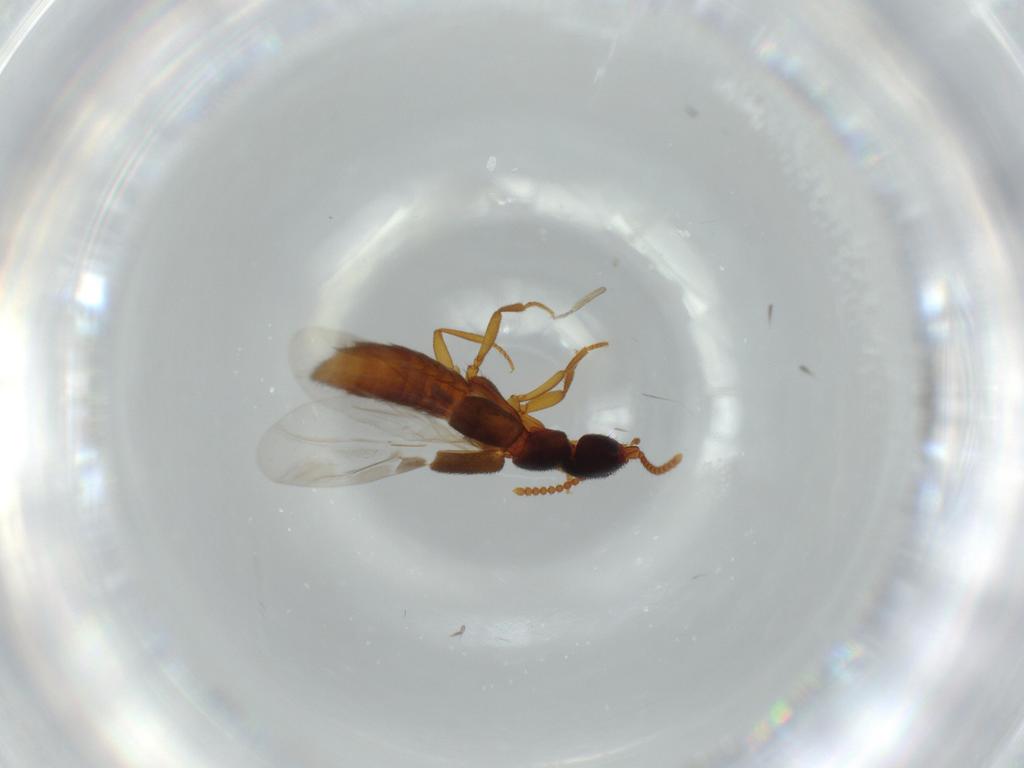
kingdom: Animalia
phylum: Arthropoda
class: Insecta
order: Coleoptera
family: Staphylinidae
